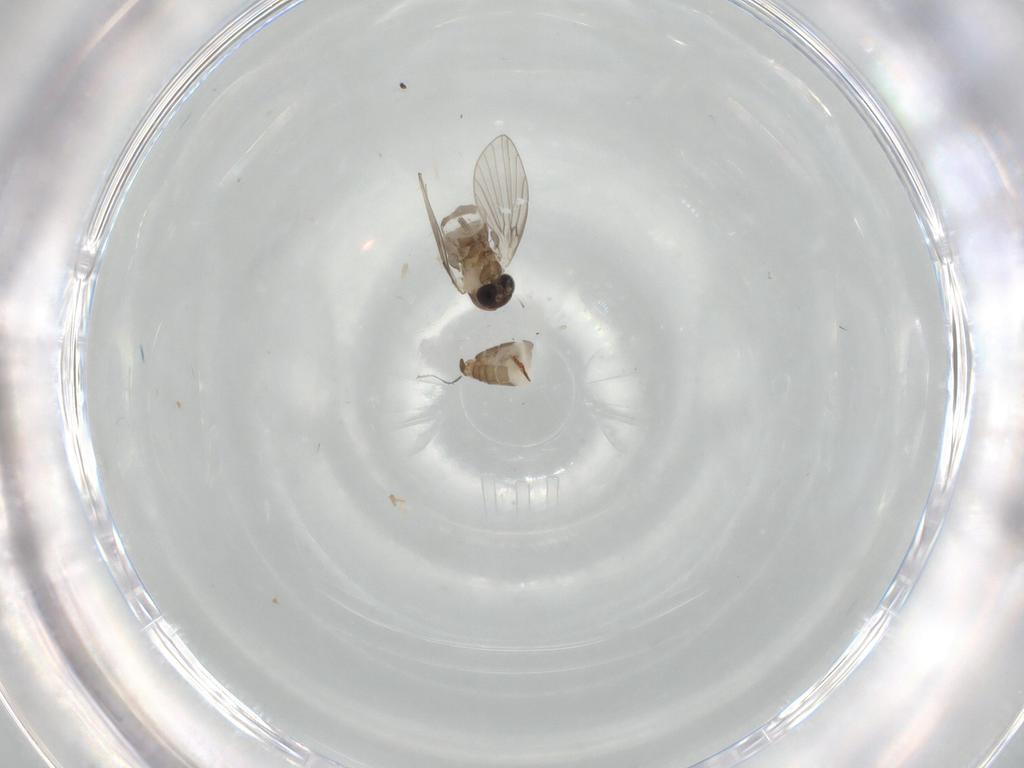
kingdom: Animalia
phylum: Arthropoda
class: Insecta
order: Diptera
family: Psychodidae
